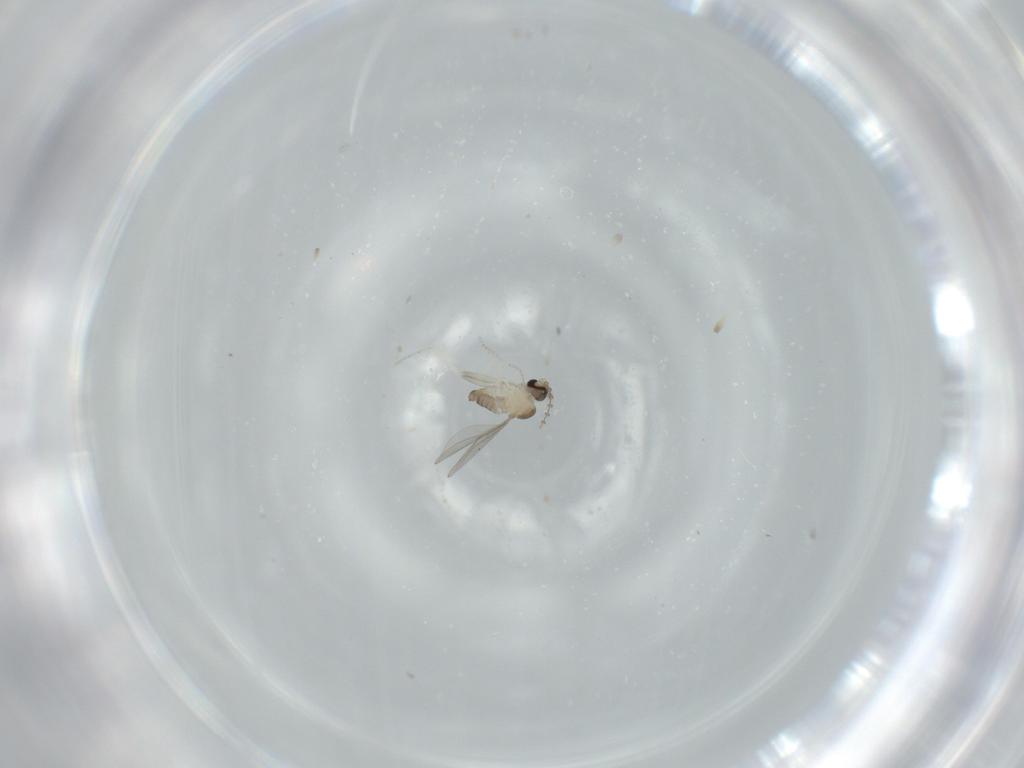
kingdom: Animalia
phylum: Arthropoda
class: Insecta
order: Diptera
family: Cecidomyiidae
